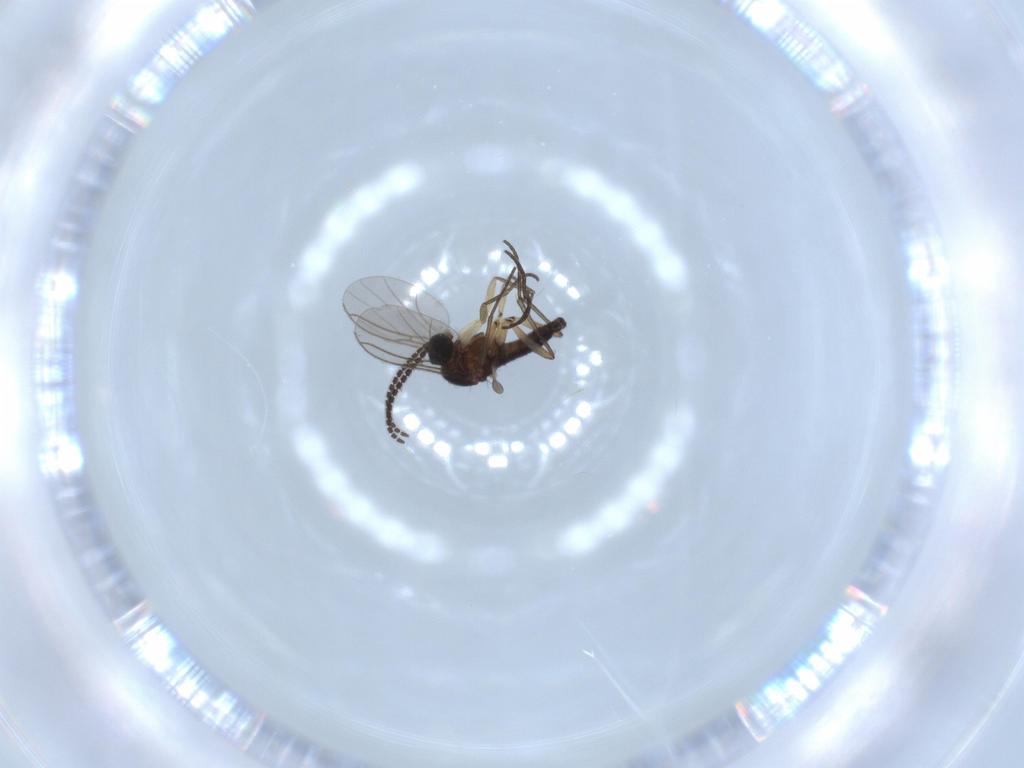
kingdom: Animalia
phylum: Arthropoda
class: Insecta
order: Diptera
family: Sciaridae
